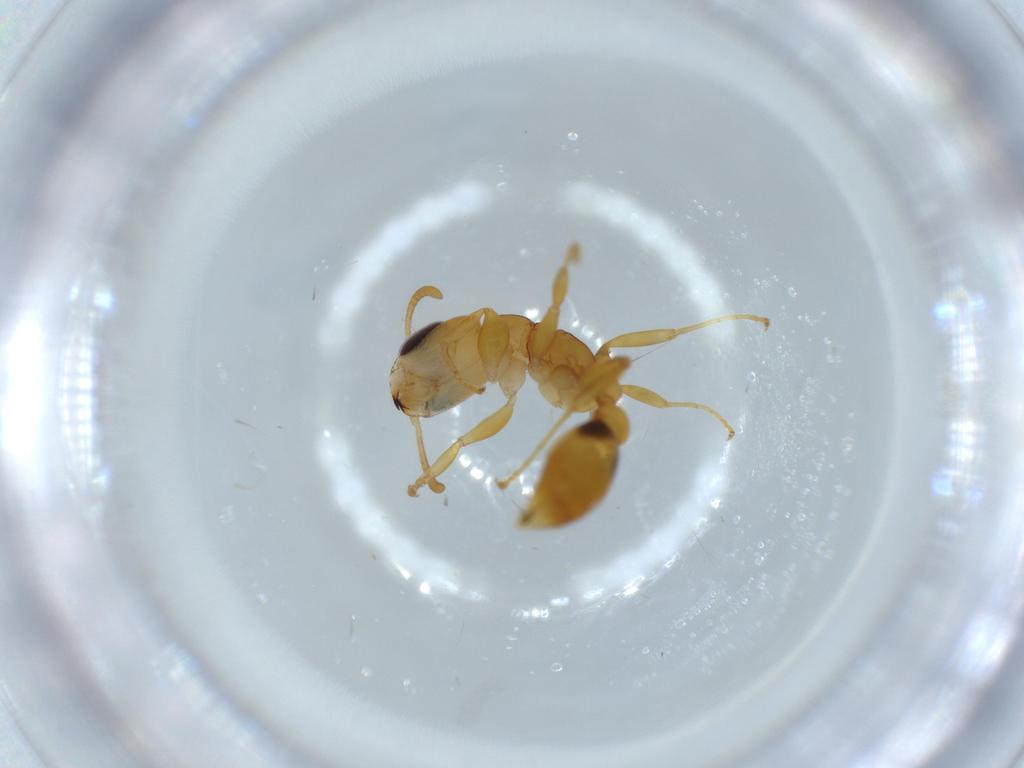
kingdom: Animalia
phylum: Arthropoda
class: Insecta
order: Hymenoptera
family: Formicidae
